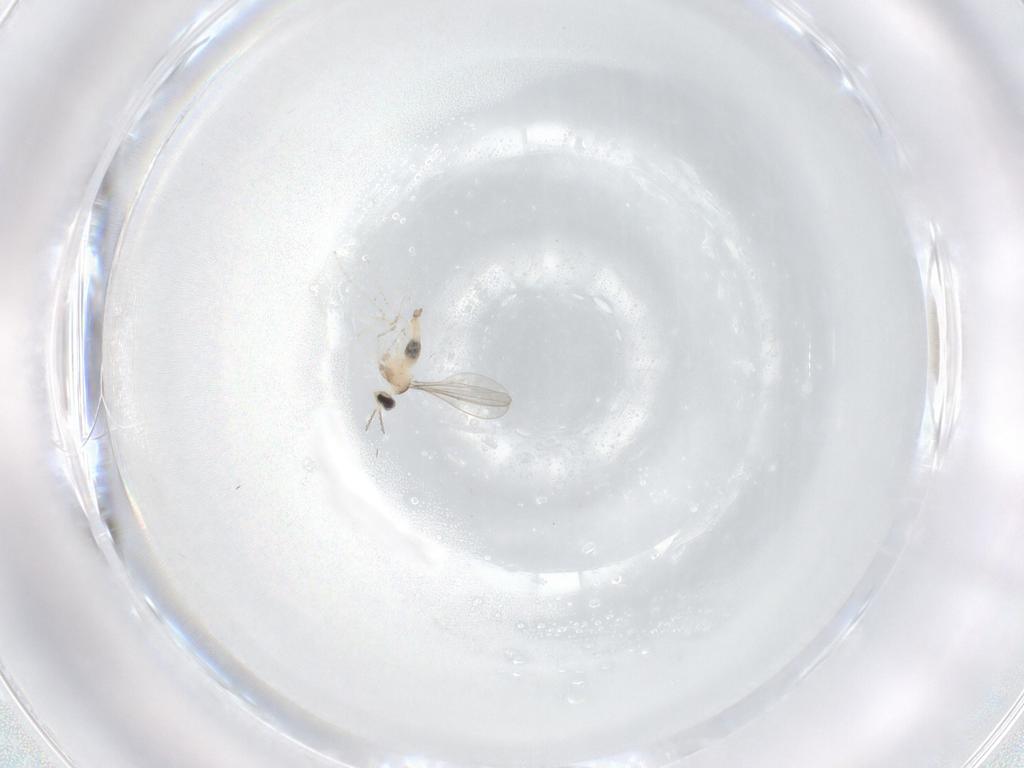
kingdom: Animalia
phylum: Arthropoda
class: Insecta
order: Diptera
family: Cecidomyiidae
